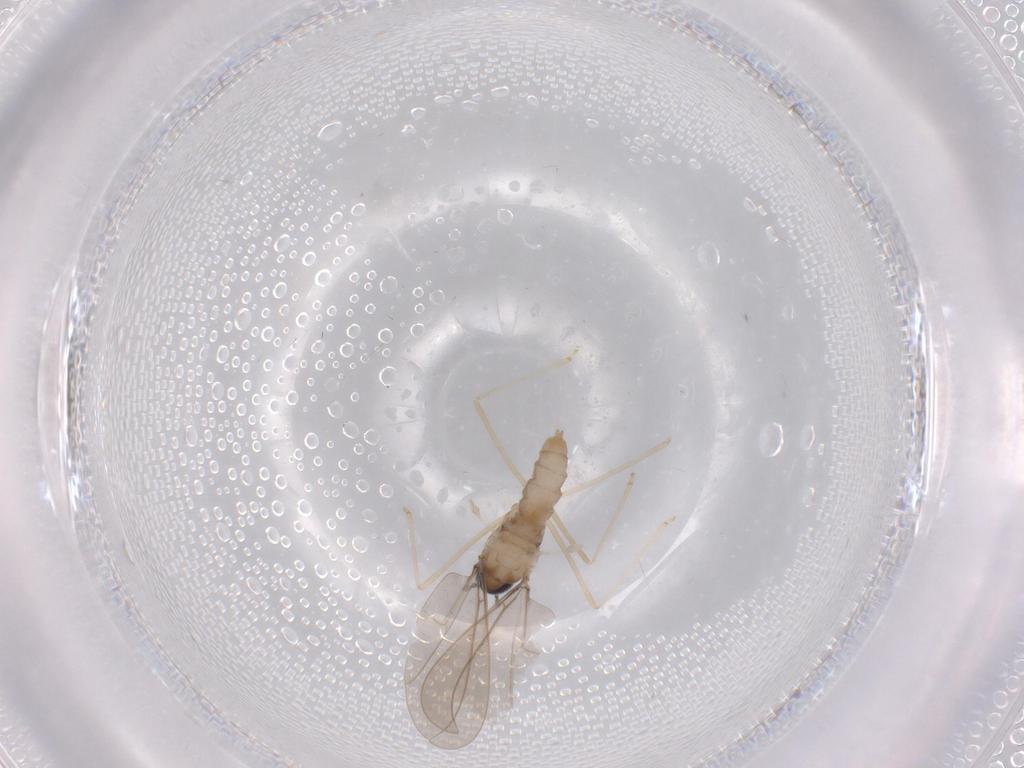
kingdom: Animalia
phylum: Arthropoda
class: Insecta
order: Diptera
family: Cecidomyiidae
